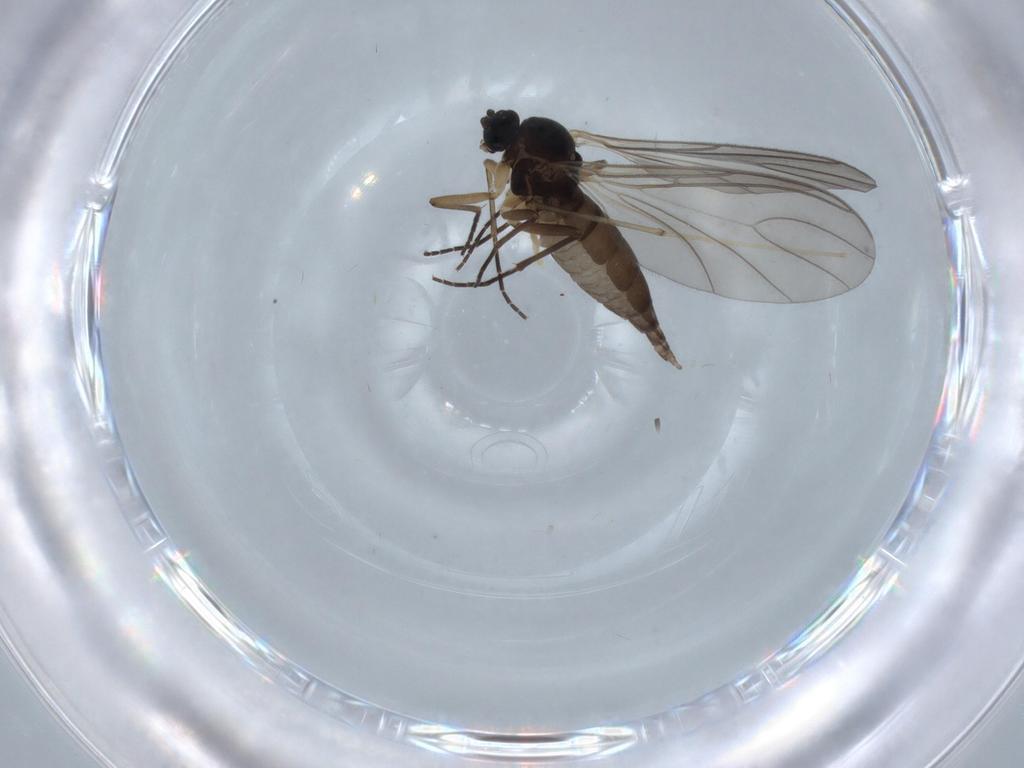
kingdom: Animalia
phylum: Arthropoda
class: Insecta
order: Diptera
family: Sciaridae
